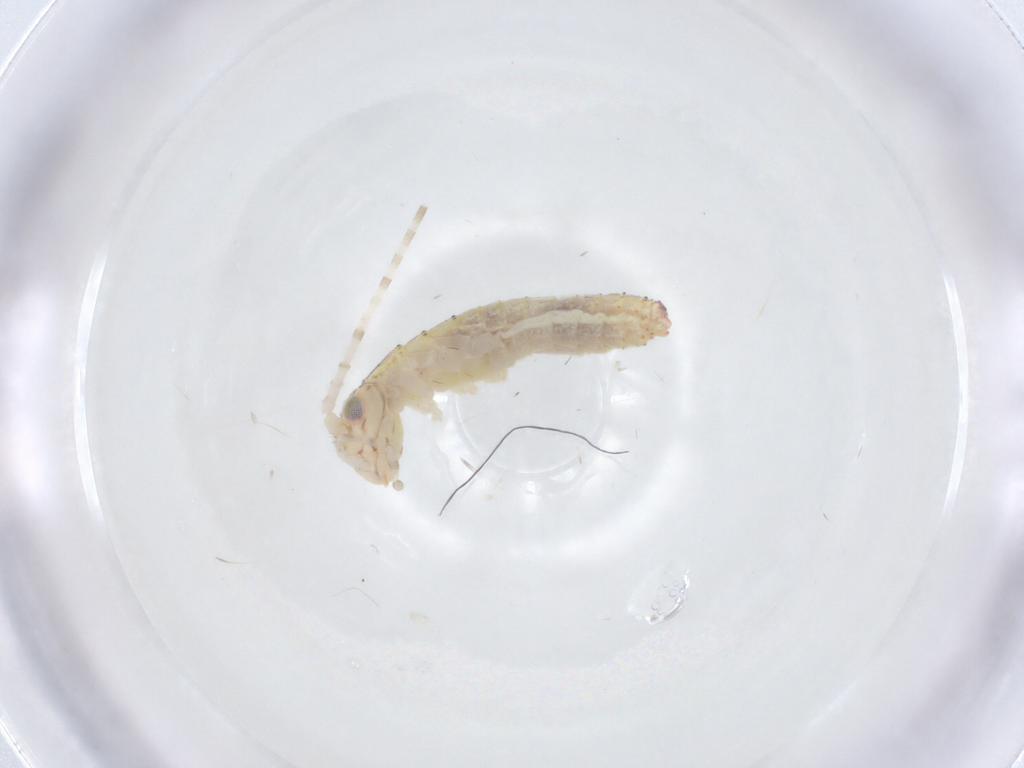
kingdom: Animalia
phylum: Arthropoda
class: Insecta
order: Orthoptera
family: Oecanthidae
